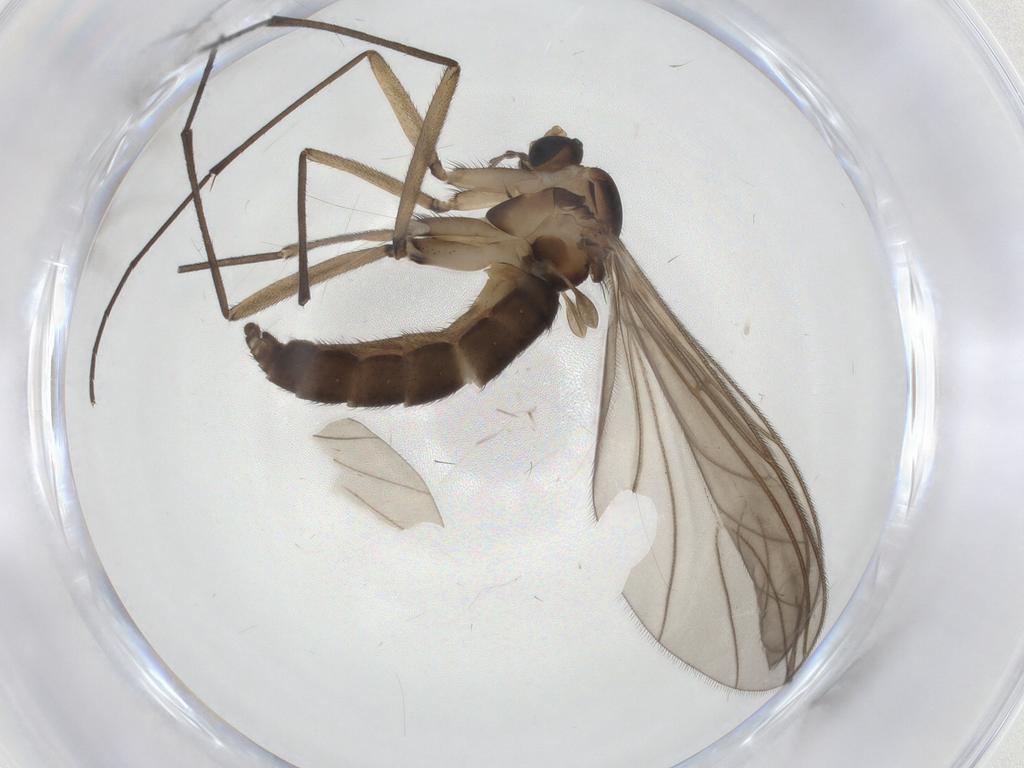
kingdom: Animalia
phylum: Arthropoda
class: Insecta
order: Diptera
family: Sciaridae
